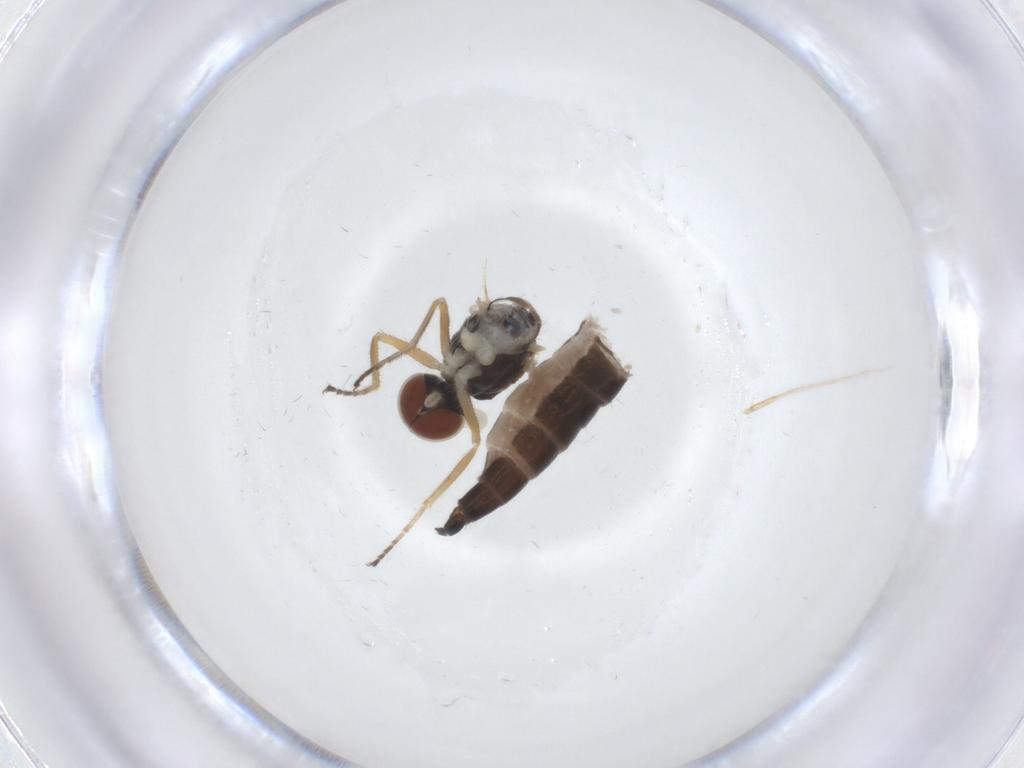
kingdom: Animalia
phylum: Arthropoda
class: Insecta
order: Diptera
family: Hybotidae
